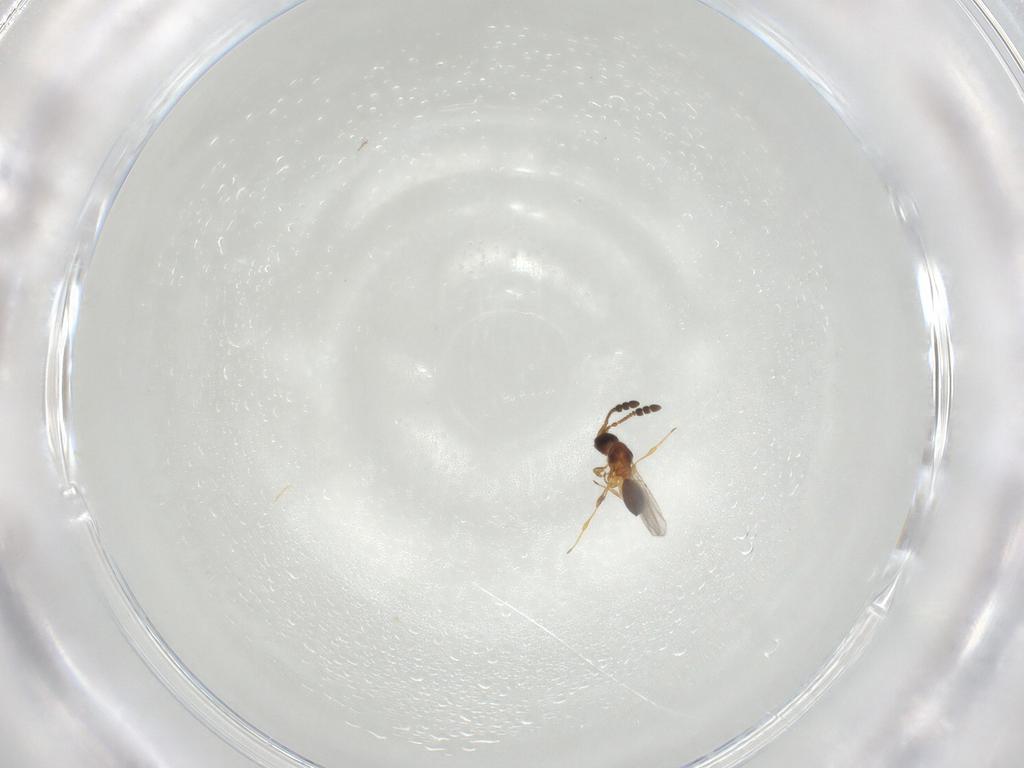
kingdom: Animalia
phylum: Arthropoda
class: Insecta
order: Hymenoptera
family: Diapriidae
